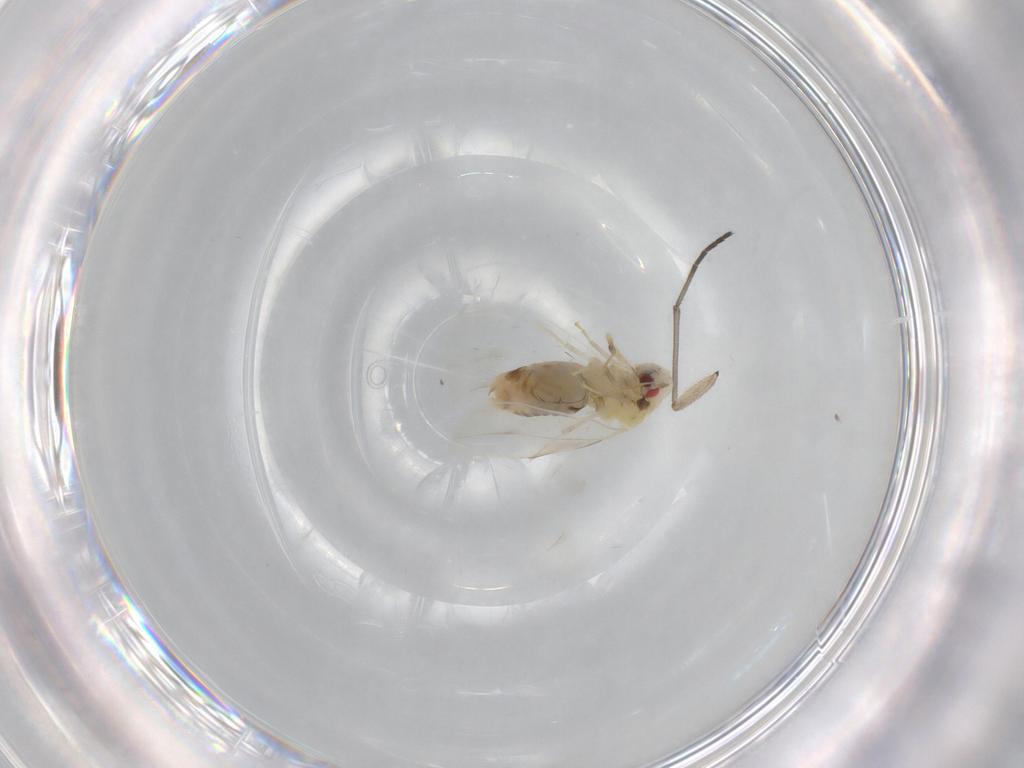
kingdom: Animalia
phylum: Arthropoda
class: Insecta
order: Hemiptera
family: Aleyrodidae
